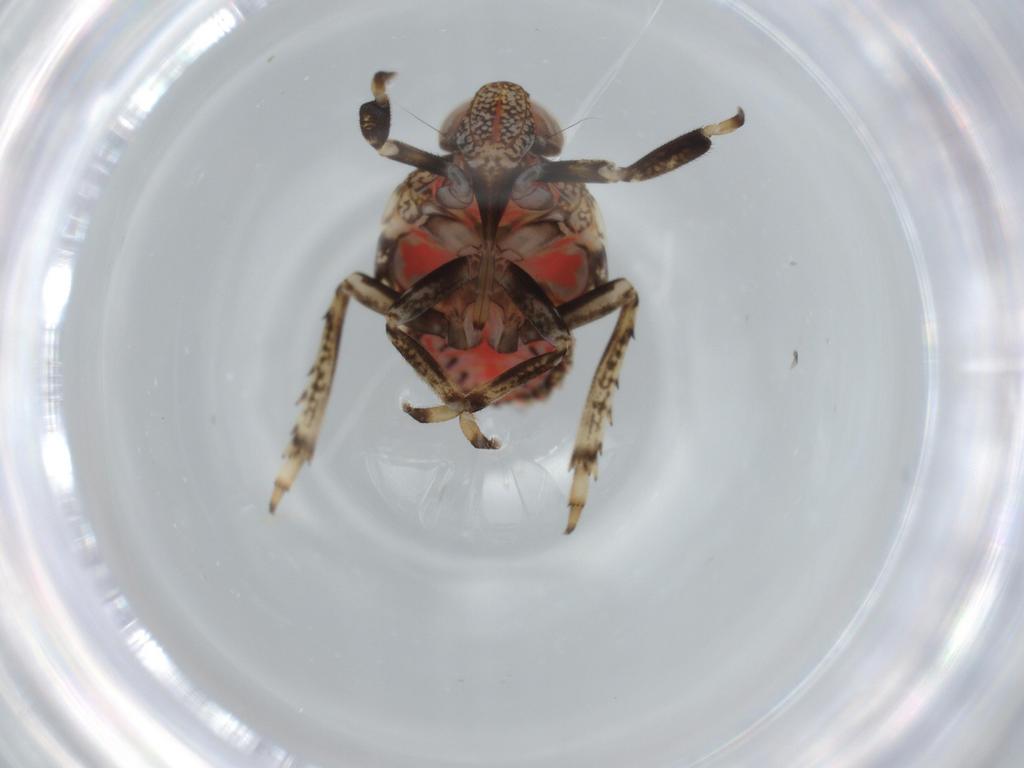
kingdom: Animalia
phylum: Arthropoda
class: Insecta
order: Hemiptera
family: Issidae
